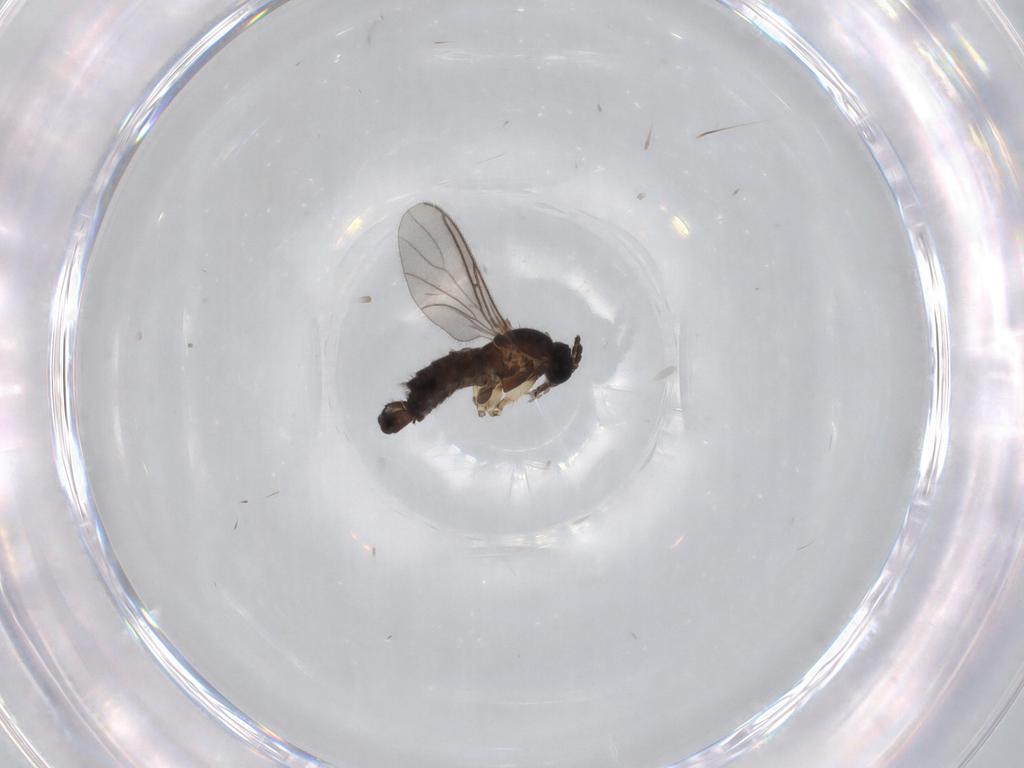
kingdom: Animalia
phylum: Arthropoda
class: Insecta
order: Diptera
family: Sciaridae
